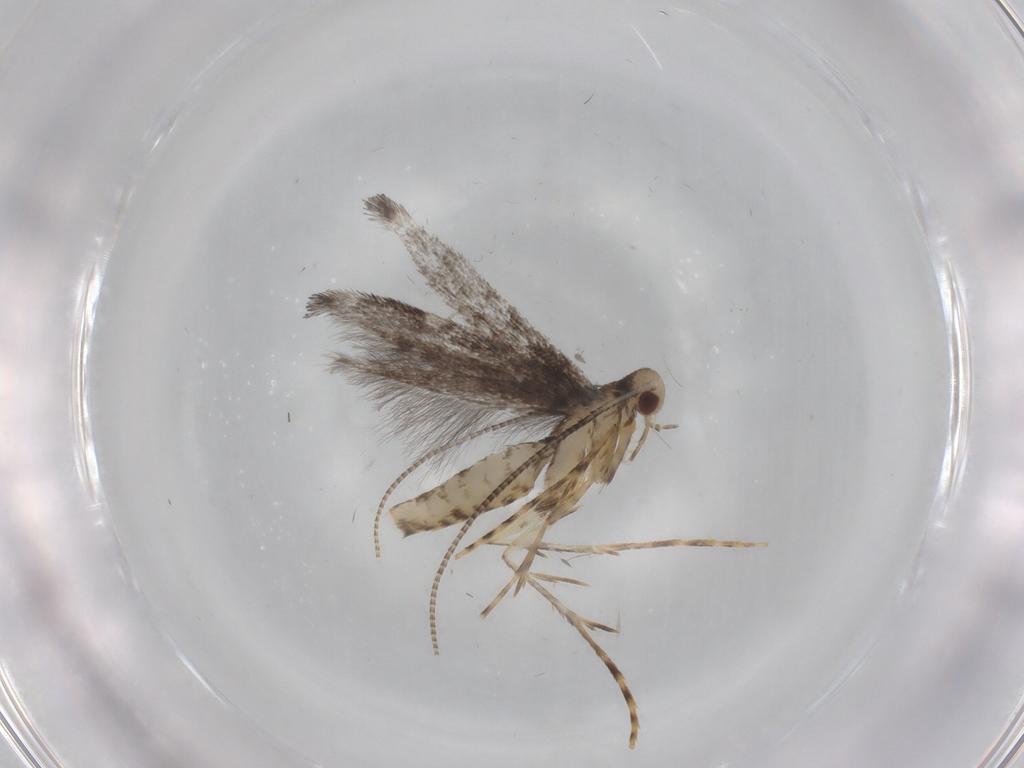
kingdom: Animalia
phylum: Arthropoda
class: Insecta
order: Lepidoptera
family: Gracillariidae
